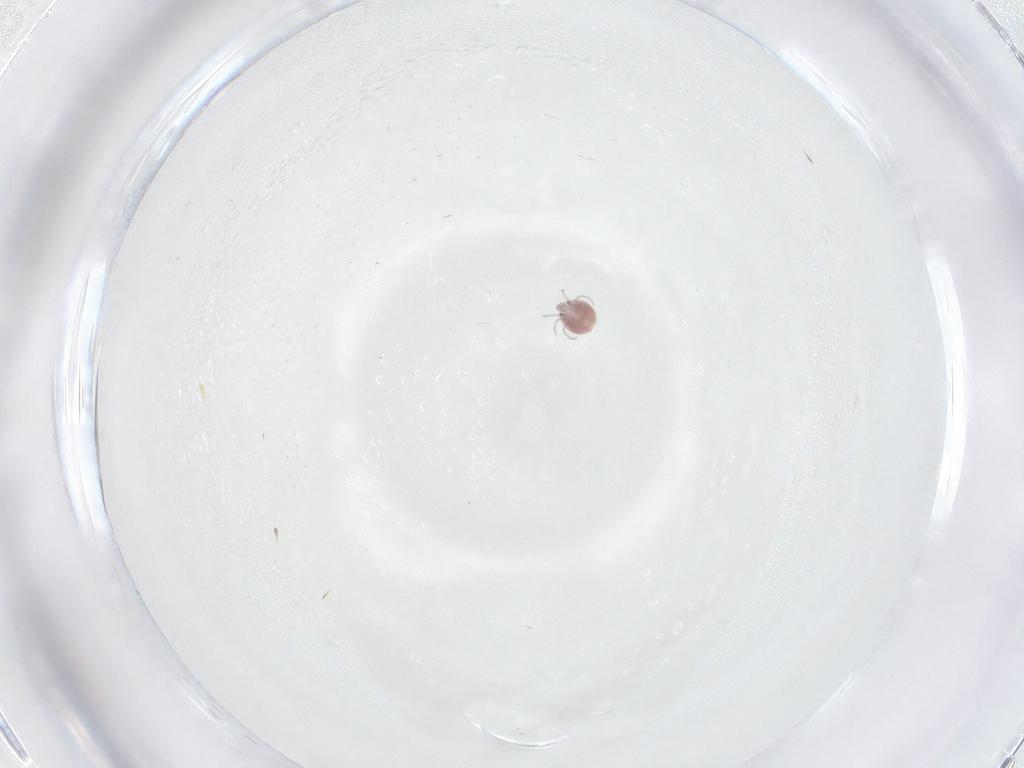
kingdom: Animalia
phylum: Arthropoda
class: Arachnida
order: Trombidiformes
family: Pionidae
